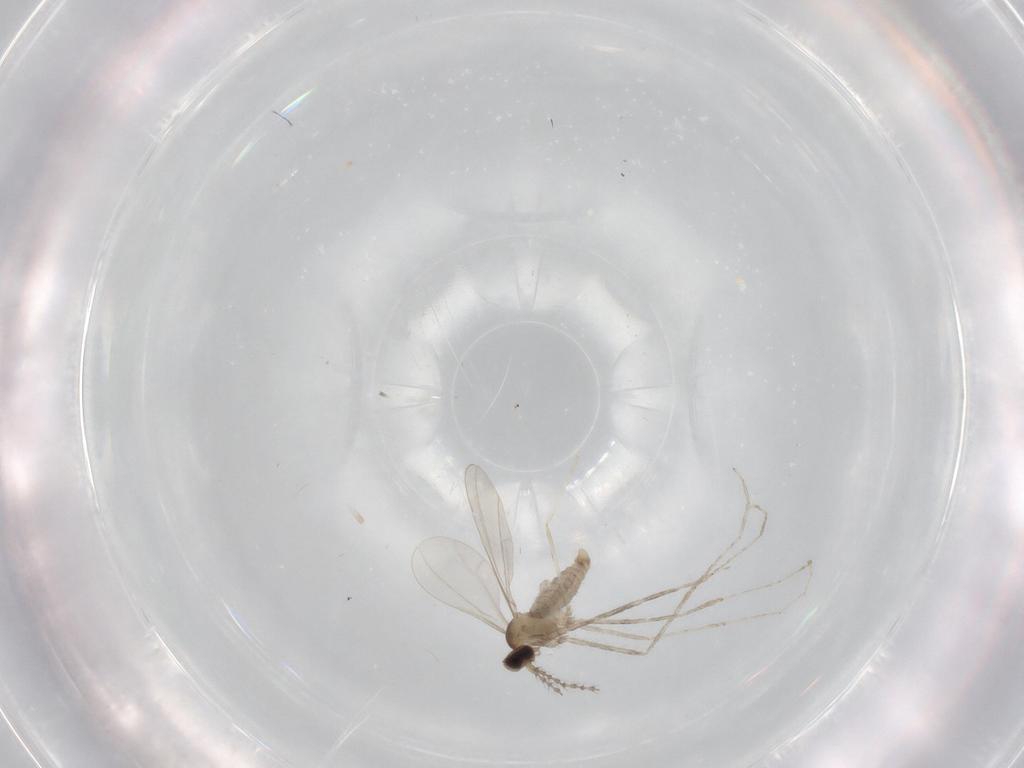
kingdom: Animalia
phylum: Arthropoda
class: Insecta
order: Diptera
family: Cecidomyiidae
